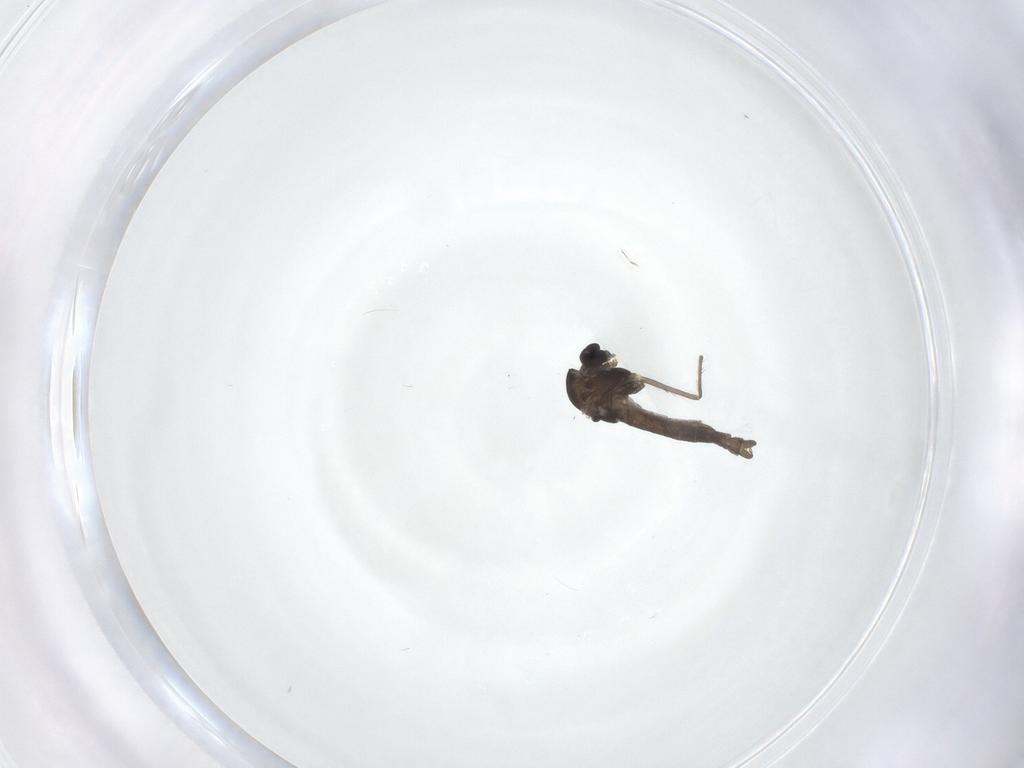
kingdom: Animalia
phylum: Arthropoda
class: Insecta
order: Diptera
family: Chironomidae
